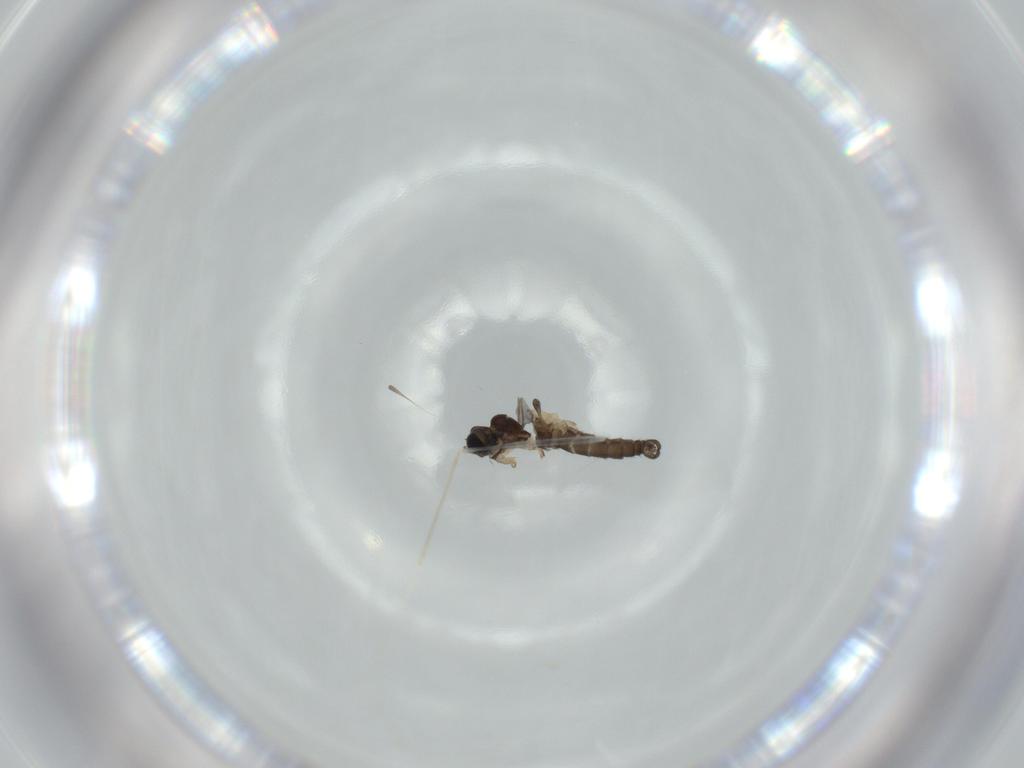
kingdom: Animalia
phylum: Arthropoda
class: Insecta
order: Diptera
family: Sciaridae
